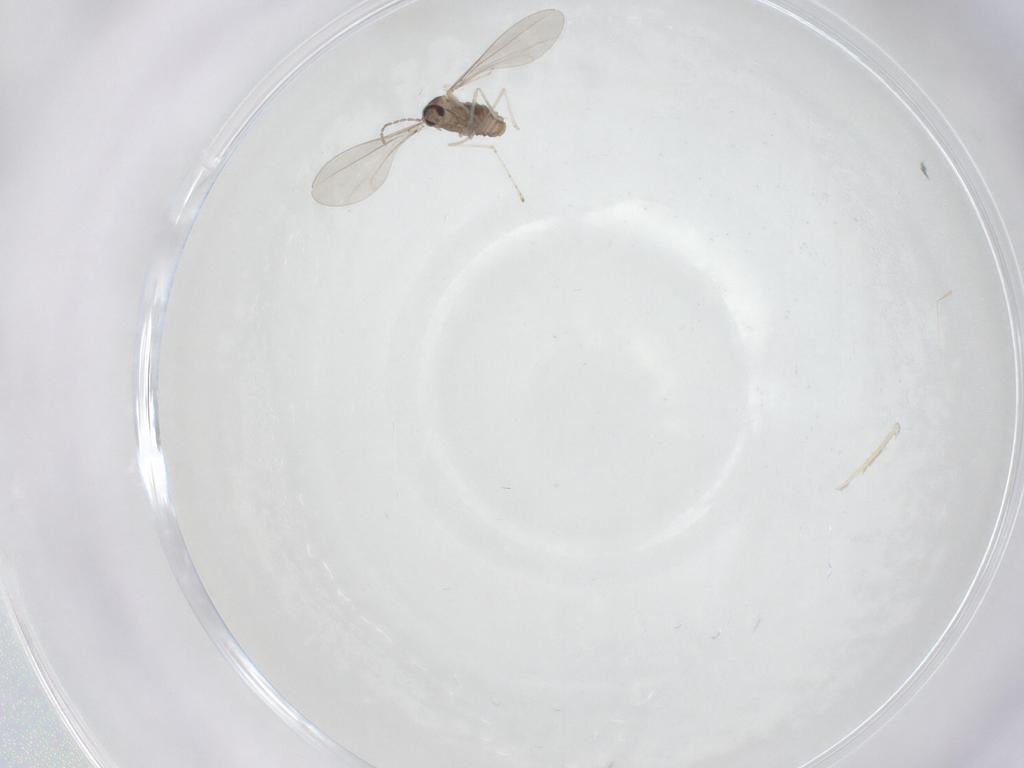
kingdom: Animalia
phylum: Arthropoda
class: Insecta
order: Diptera
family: Cecidomyiidae
